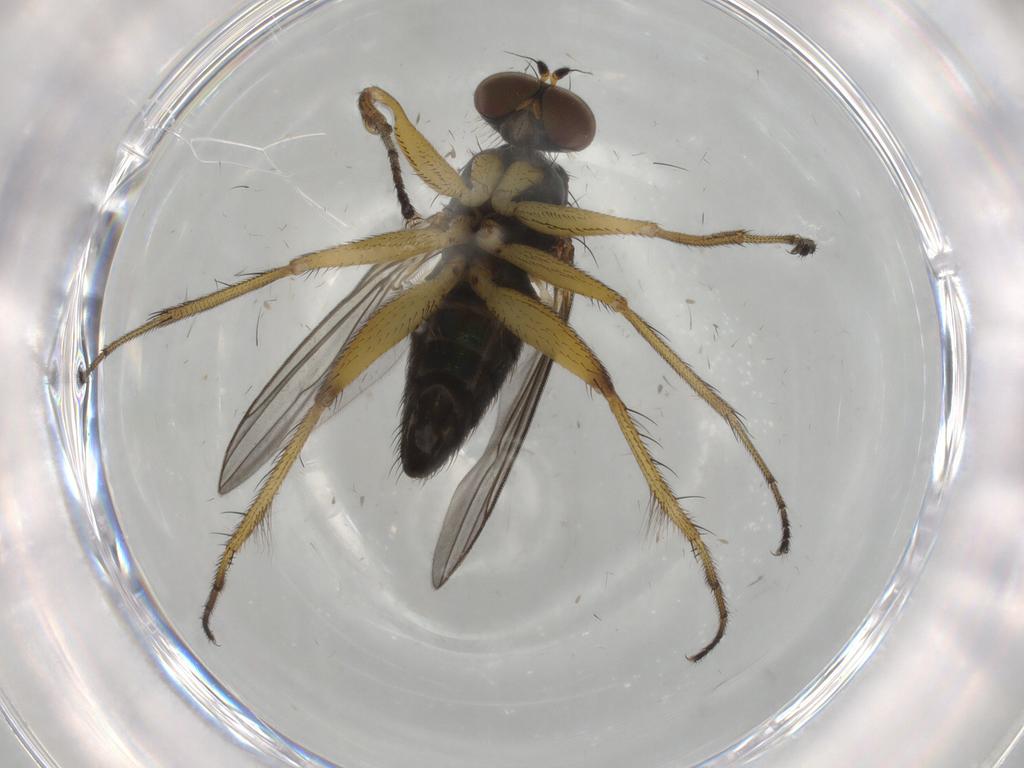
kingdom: Animalia
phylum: Arthropoda
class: Insecta
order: Diptera
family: Dolichopodidae
